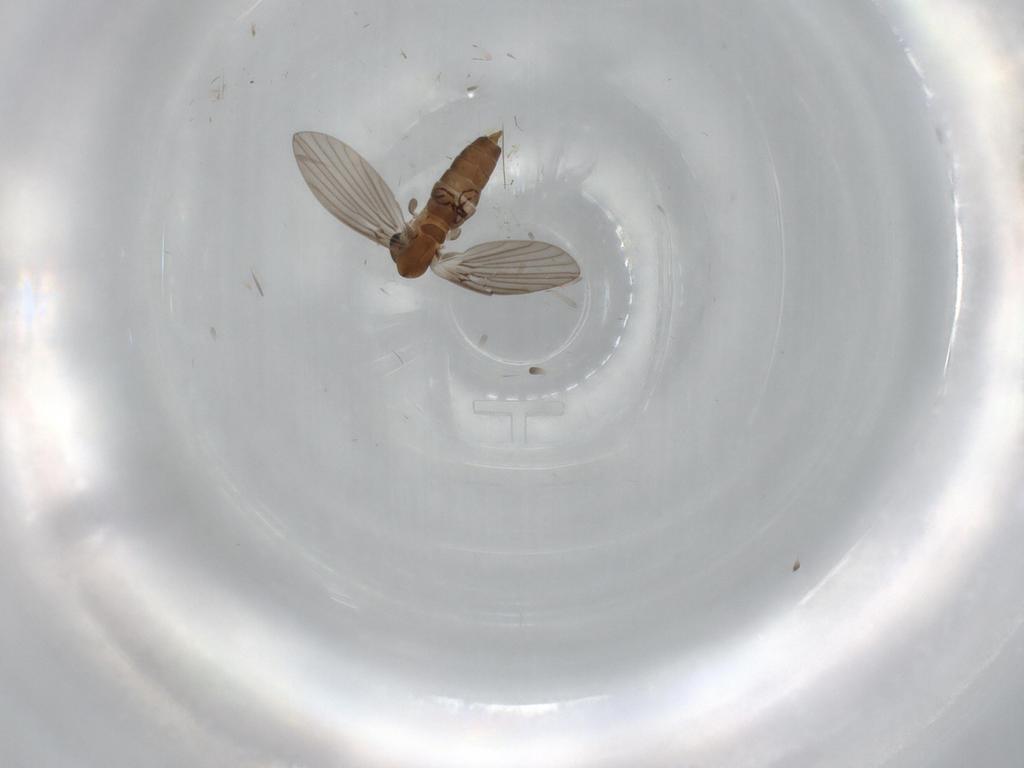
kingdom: Animalia
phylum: Arthropoda
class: Insecta
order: Diptera
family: Psychodidae
